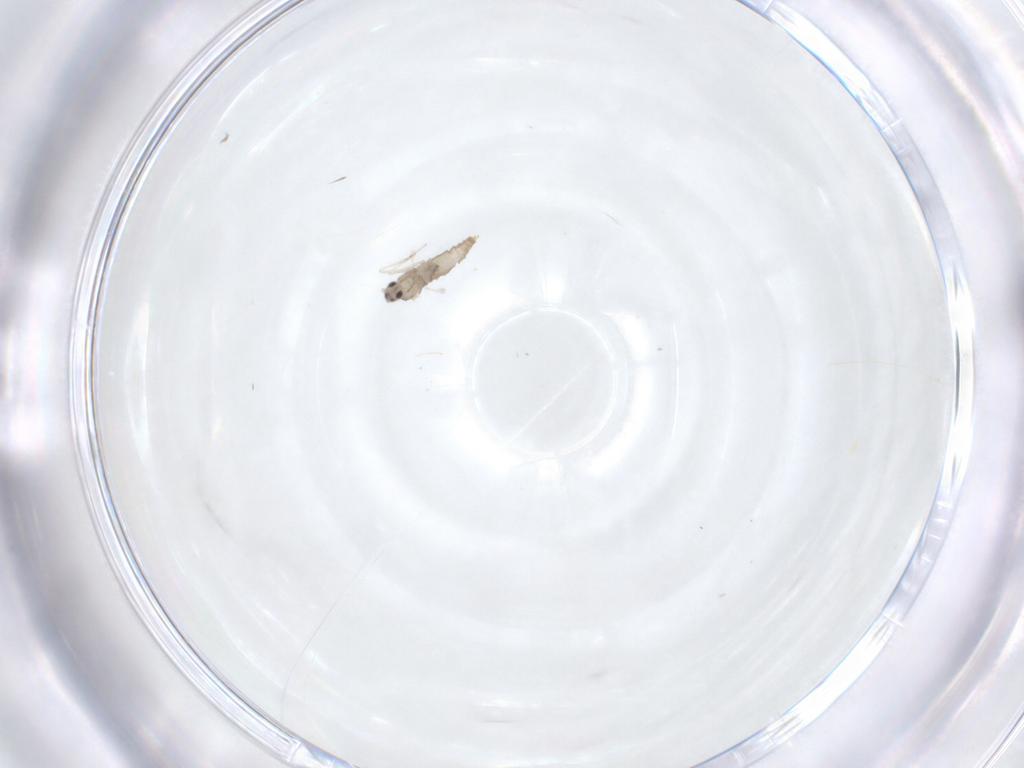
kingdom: Animalia
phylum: Arthropoda
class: Insecta
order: Diptera
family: Cecidomyiidae
